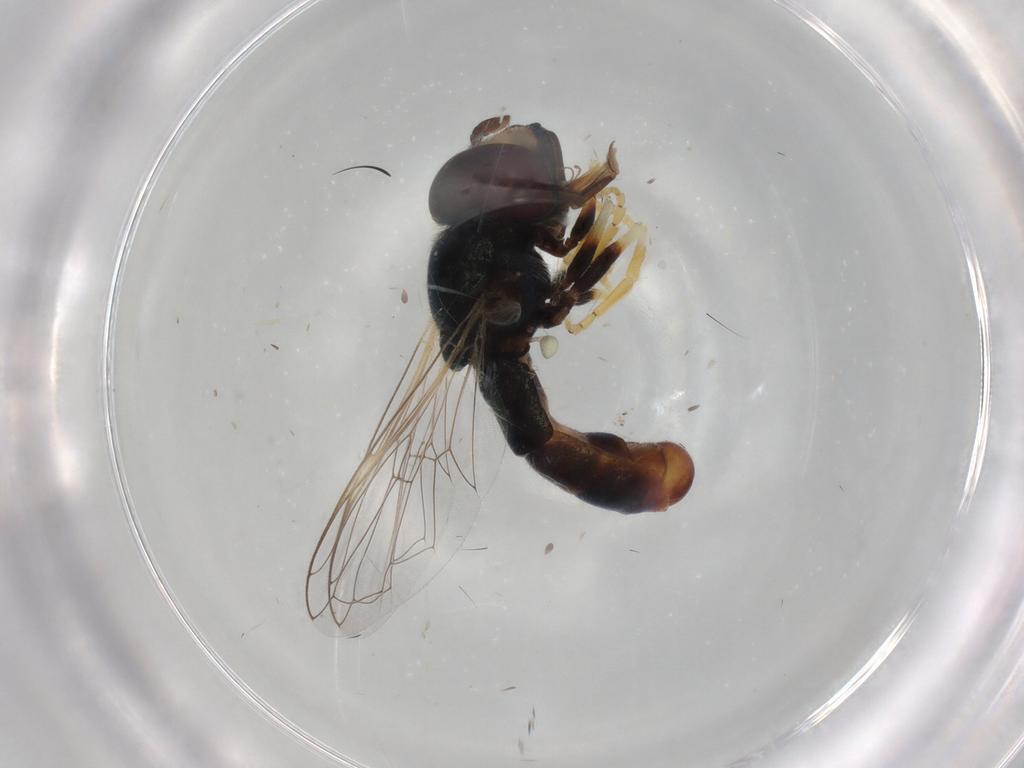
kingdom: Animalia
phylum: Arthropoda
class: Insecta
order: Diptera
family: Syrphidae
